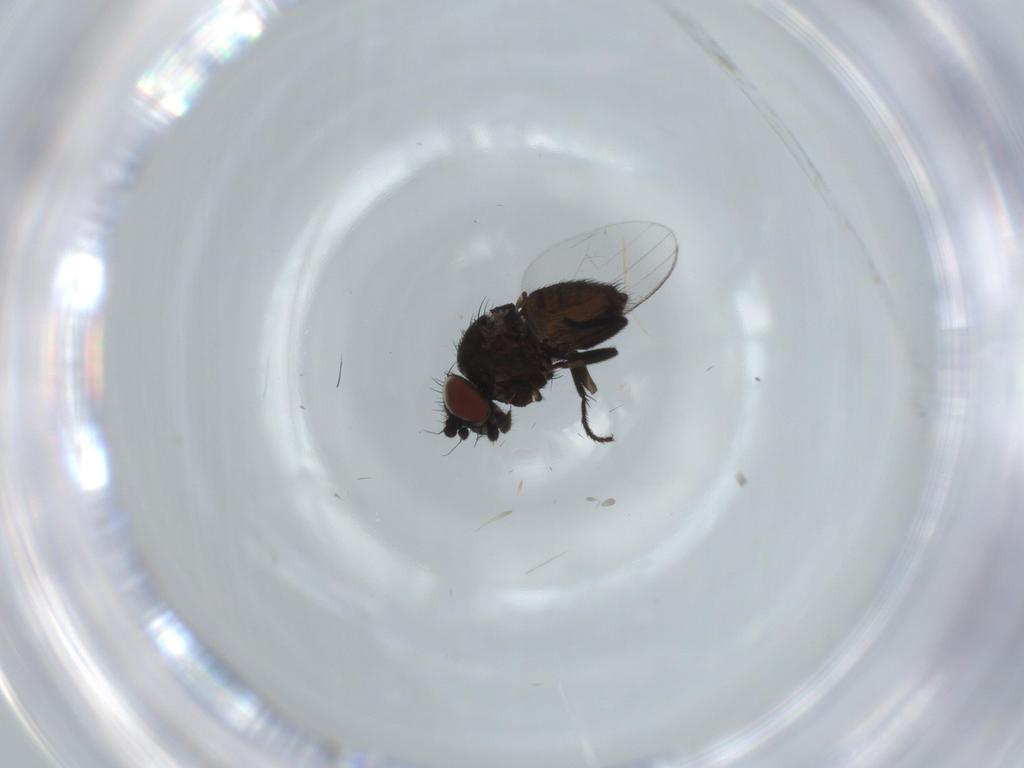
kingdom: Animalia
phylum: Arthropoda
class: Insecta
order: Diptera
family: Milichiidae
